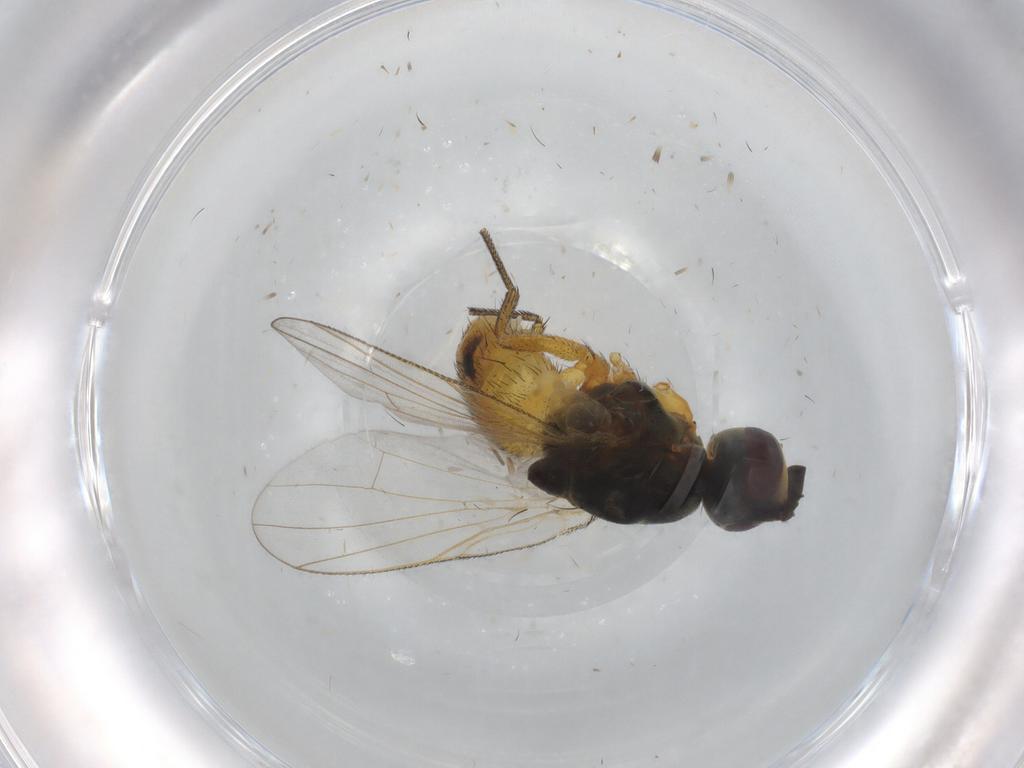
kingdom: Animalia
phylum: Arthropoda
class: Insecta
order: Diptera
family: Muscidae
